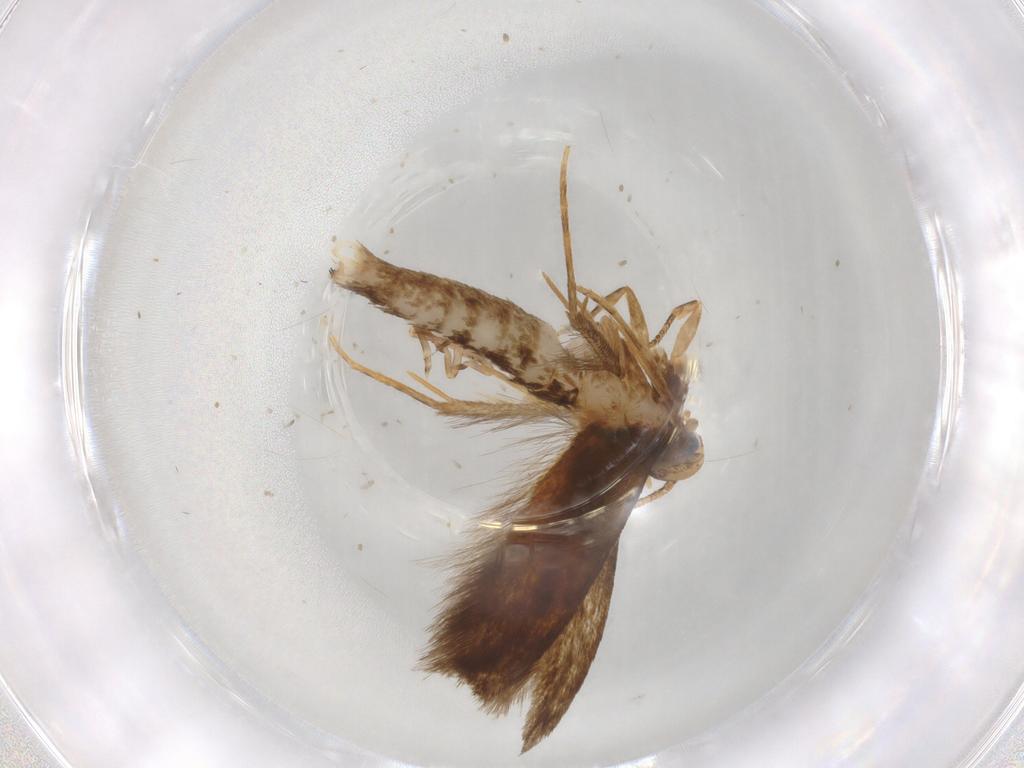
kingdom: Animalia
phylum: Arthropoda
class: Insecta
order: Lepidoptera
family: Tineidae
